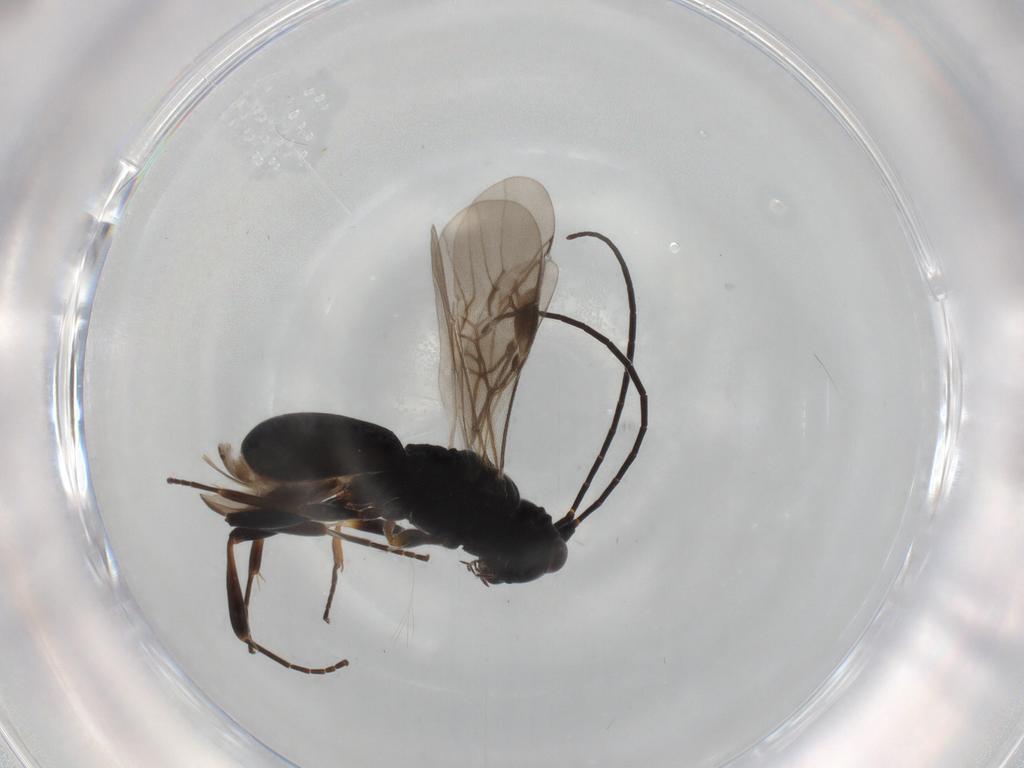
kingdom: Animalia
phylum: Arthropoda
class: Insecta
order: Hymenoptera
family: Braconidae
